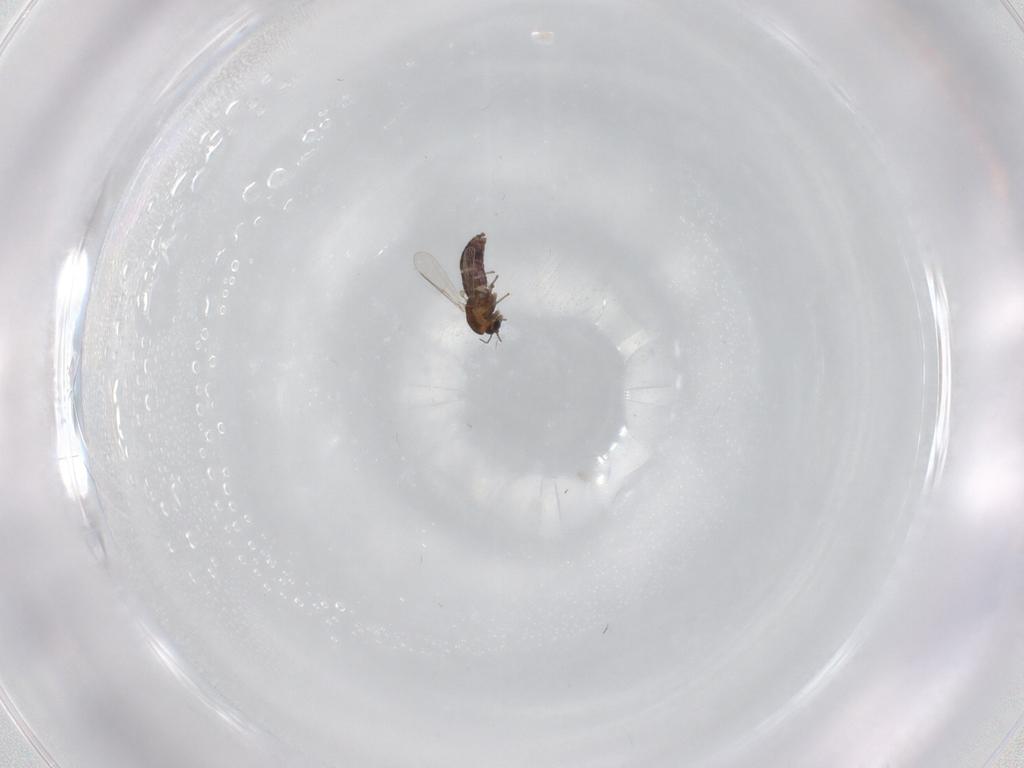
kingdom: Animalia
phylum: Arthropoda
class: Insecta
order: Diptera
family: Chironomidae
